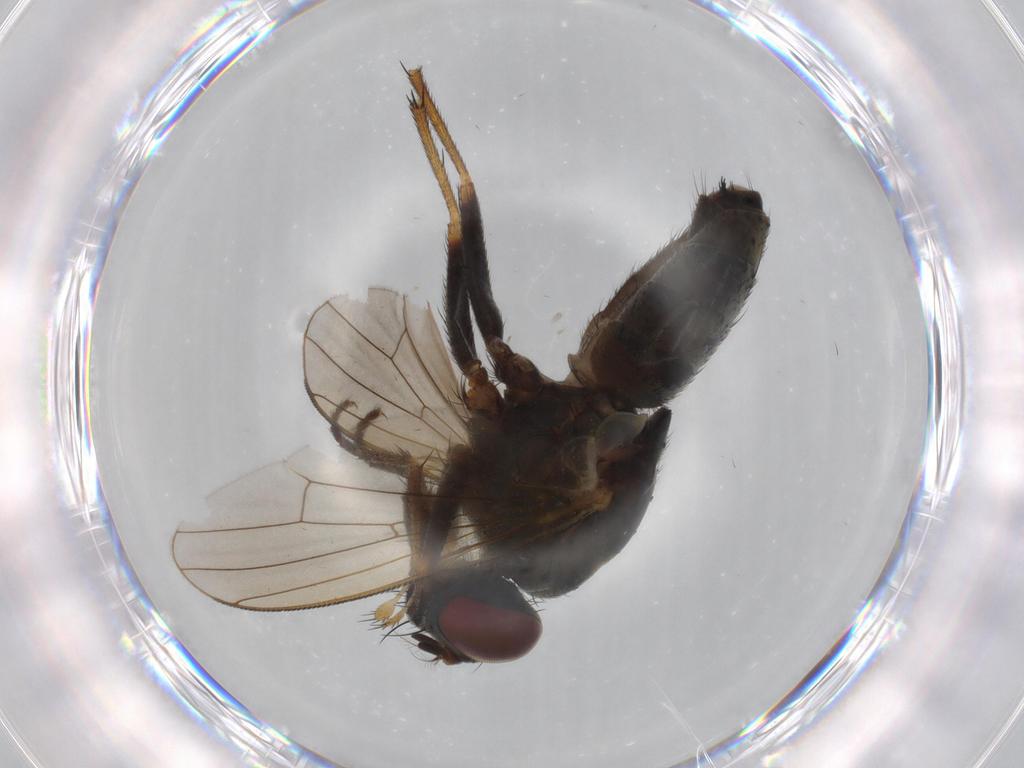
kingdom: Animalia
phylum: Arthropoda
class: Insecta
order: Diptera
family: Muscidae
